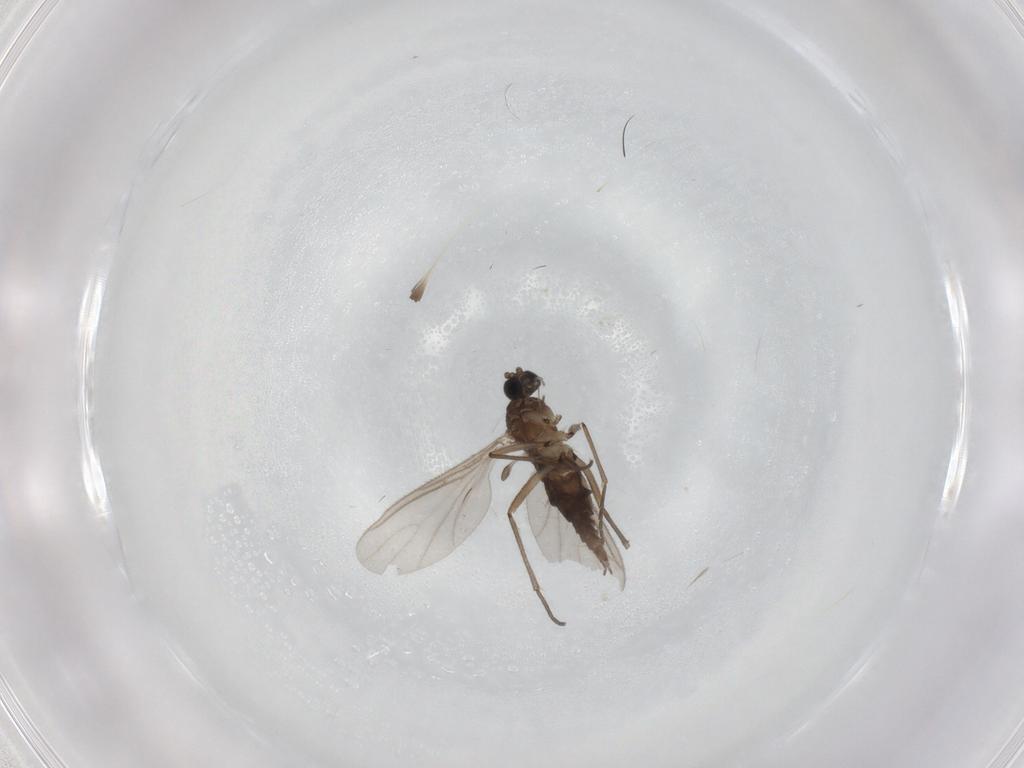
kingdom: Animalia
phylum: Arthropoda
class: Insecta
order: Diptera
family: Sciaridae
